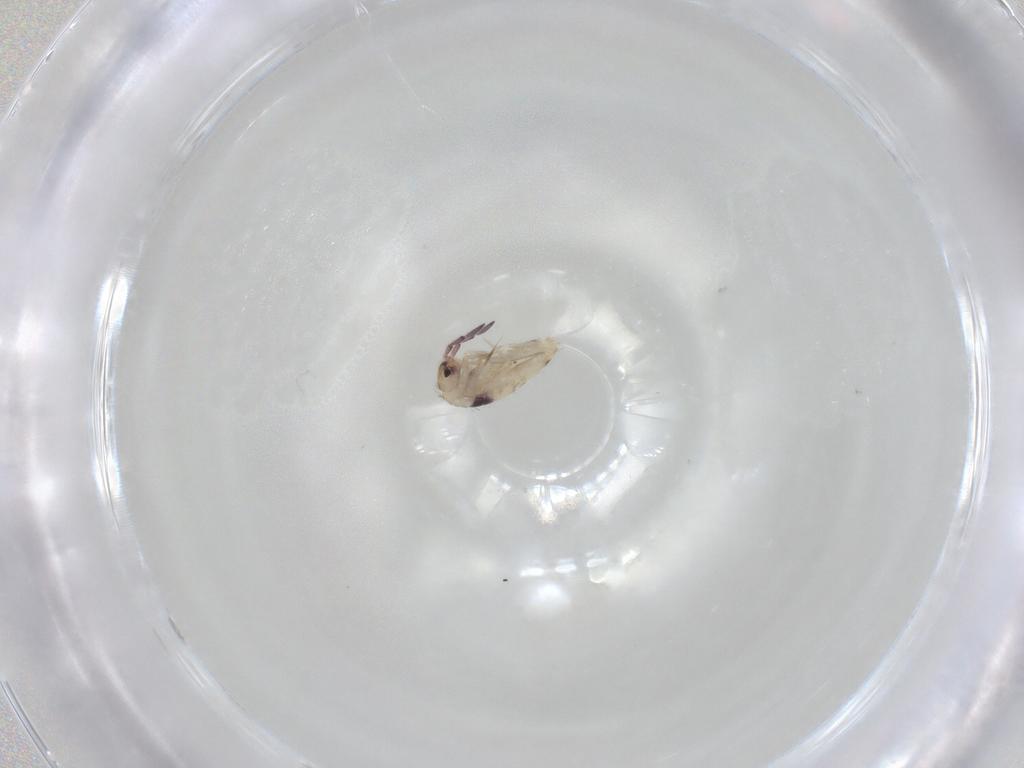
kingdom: Animalia
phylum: Arthropoda
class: Collembola
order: Entomobryomorpha
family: Entomobryidae
